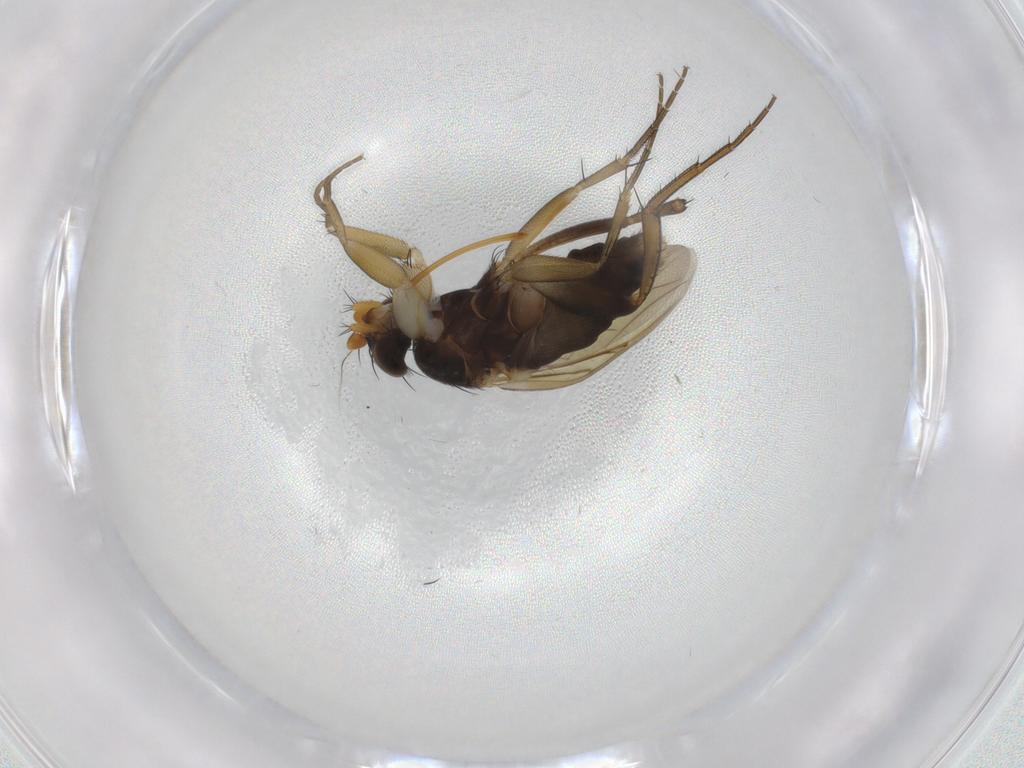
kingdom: Animalia
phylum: Arthropoda
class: Insecta
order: Diptera
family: Phoridae
